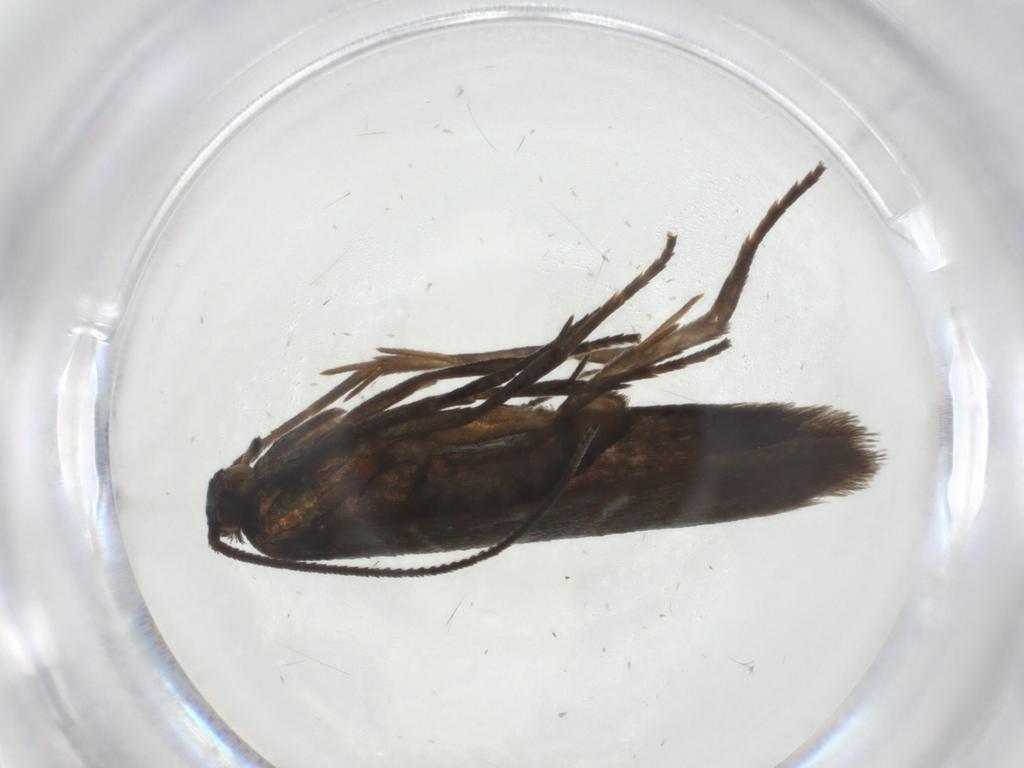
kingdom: Animalia
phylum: Arthropoda
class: Insecta
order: Lepidoptera
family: Argyresthiidae
